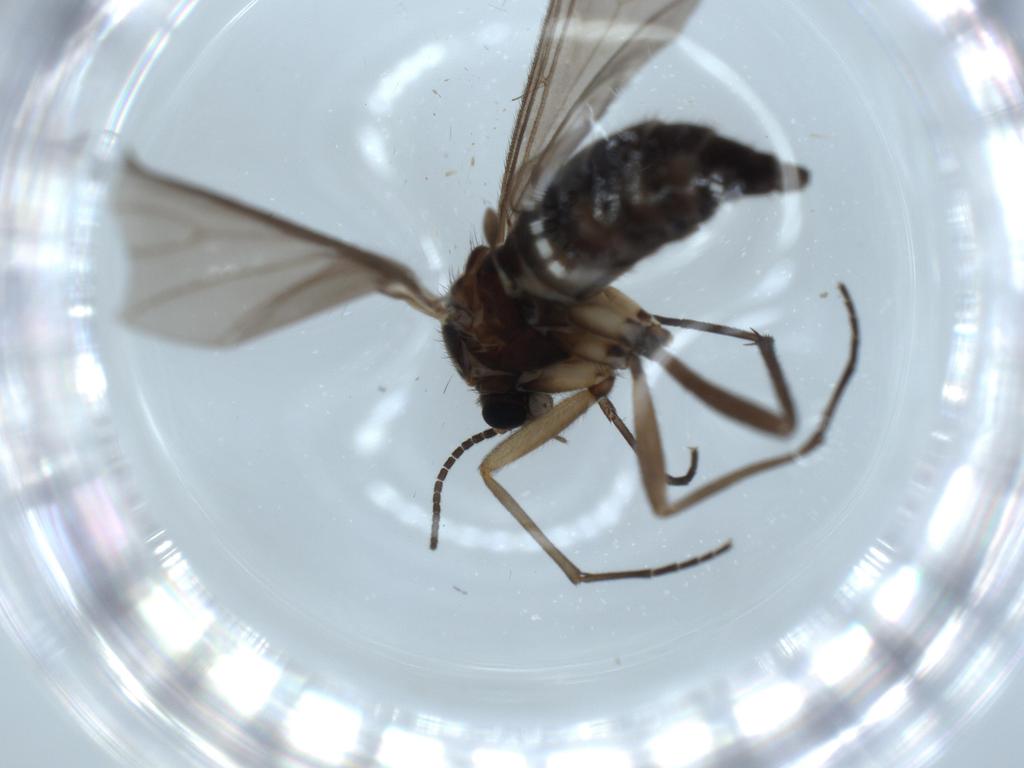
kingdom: Animalia
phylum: Arthropoda
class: Insecta
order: Diptera
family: Sciaridae
